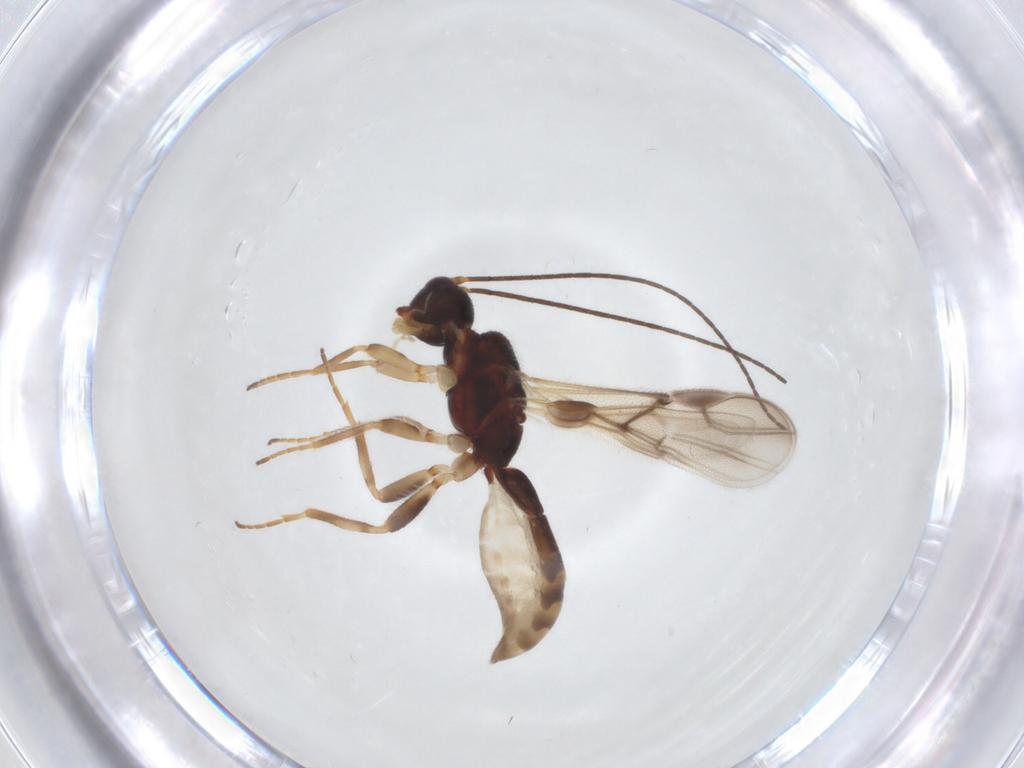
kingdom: Animalia
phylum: Arthropoda
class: Insecta
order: Hymenoptera
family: Braconidae
